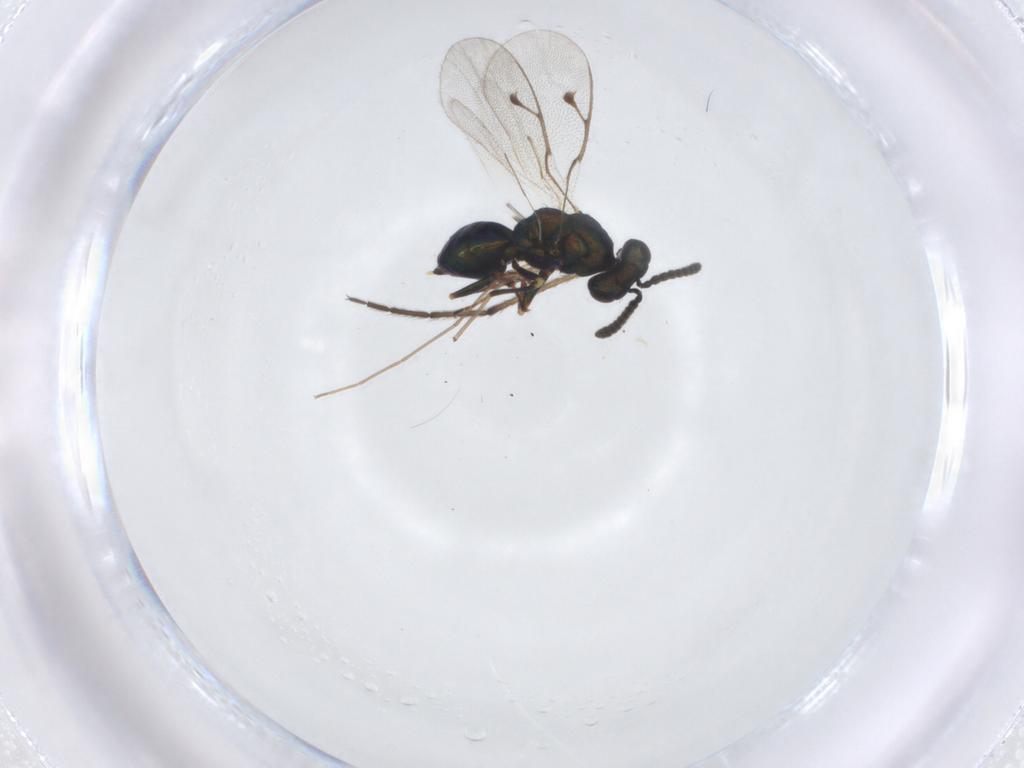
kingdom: Animalia
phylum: Arthropoda
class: Insecta
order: Hymenoptera
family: Pteromalidae
